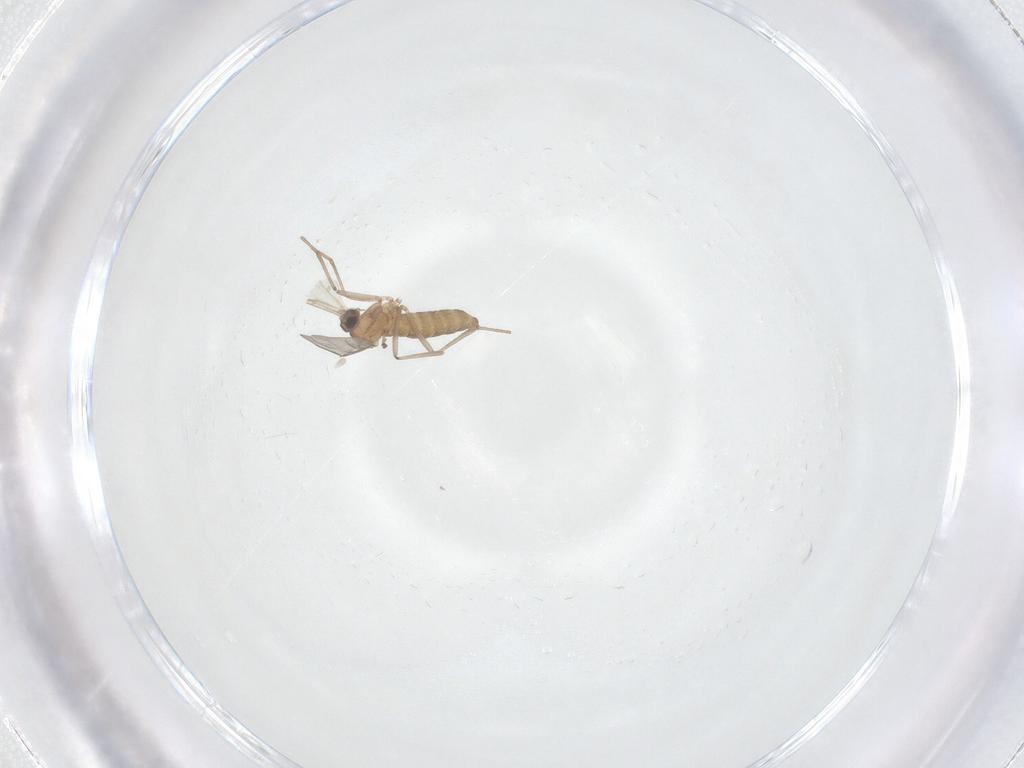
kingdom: Animalia
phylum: Arthropoda
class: Insecta
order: Diptera
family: Cecidomyiidae
